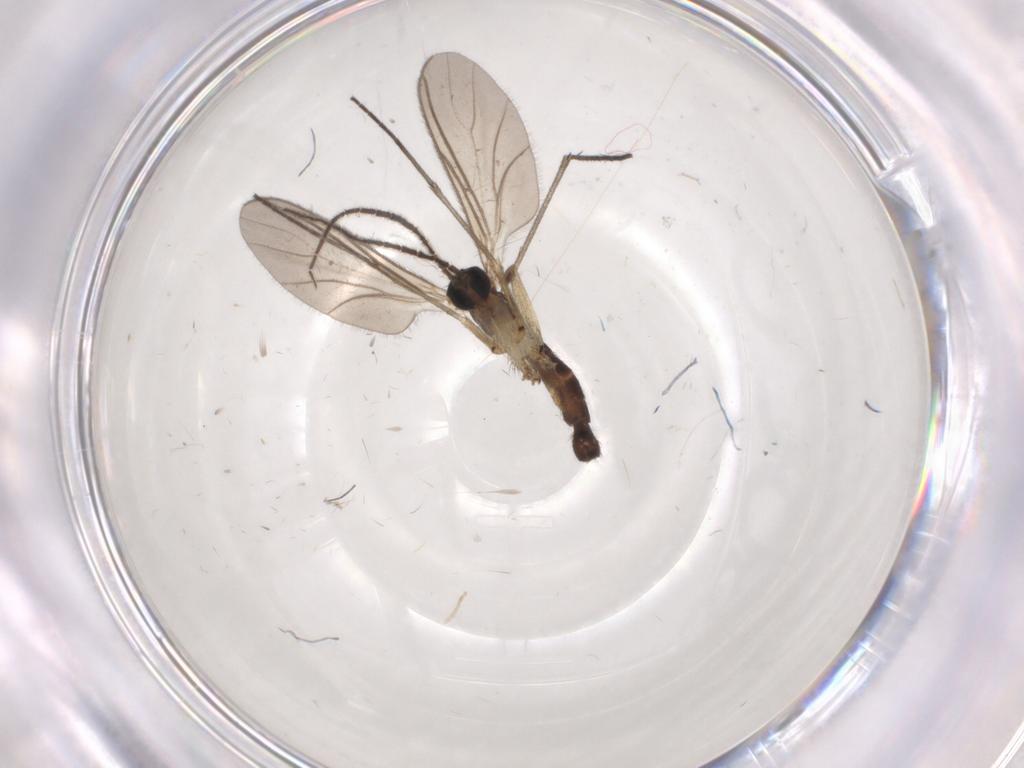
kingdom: Animalia
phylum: Arthropoda
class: Insecta
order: Diptera
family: Sciaridae
